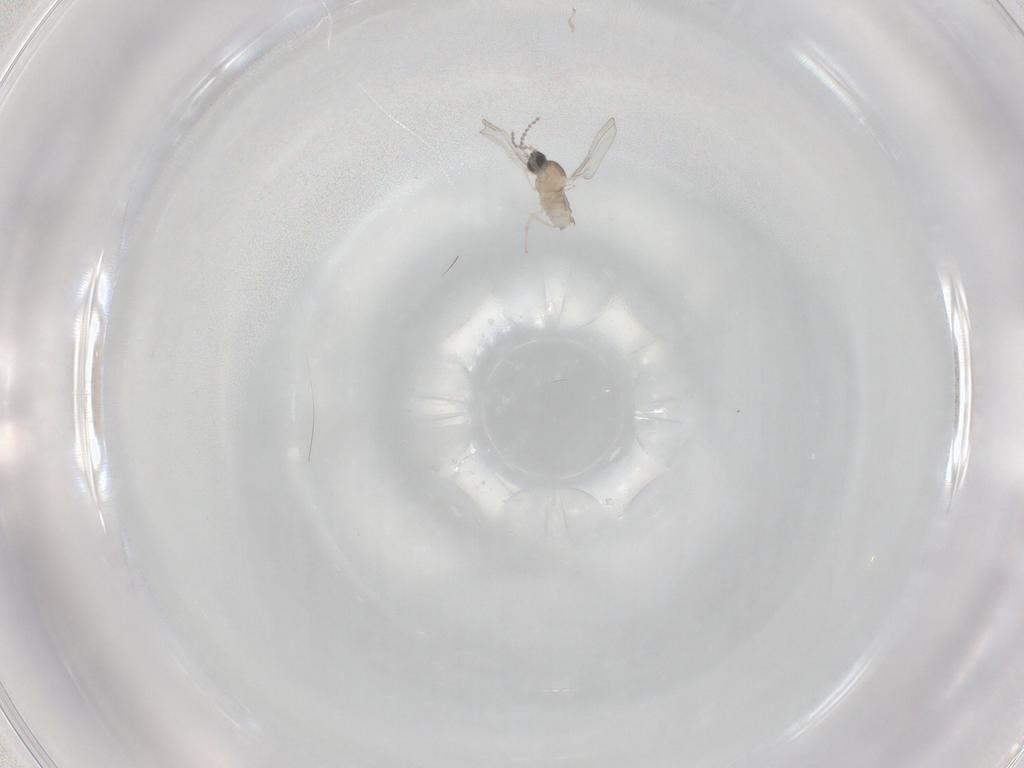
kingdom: Animalia
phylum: Arthropoda
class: Insecta
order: Diptera
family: Cecidomyiidae
